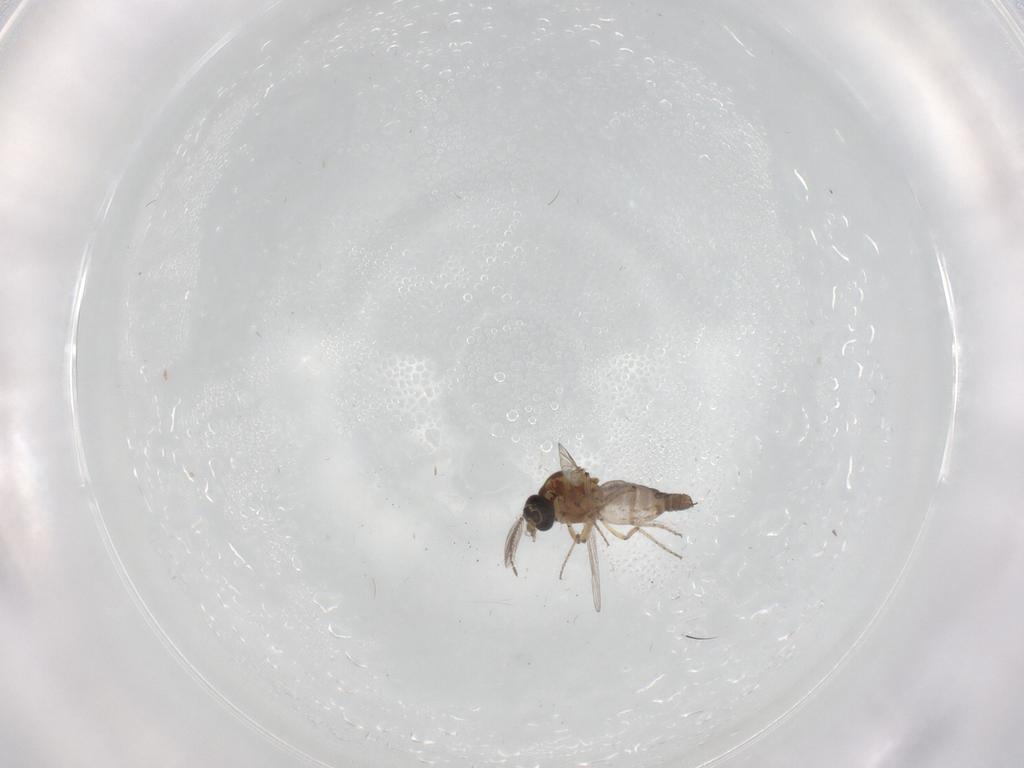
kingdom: Animalia
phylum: Arthropoda
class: Insecta
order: Diptera
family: Ceratopogonidae
